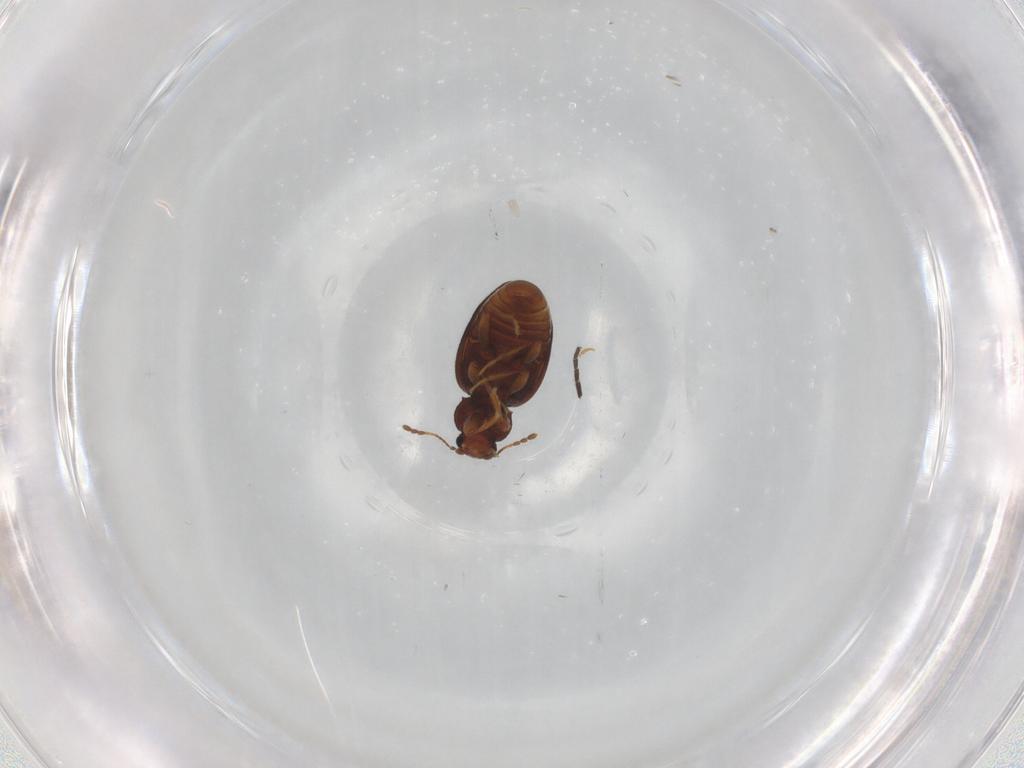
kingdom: Animalia
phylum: Arthropoda
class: Insecta
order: Coleoptera
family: Latridiidae
